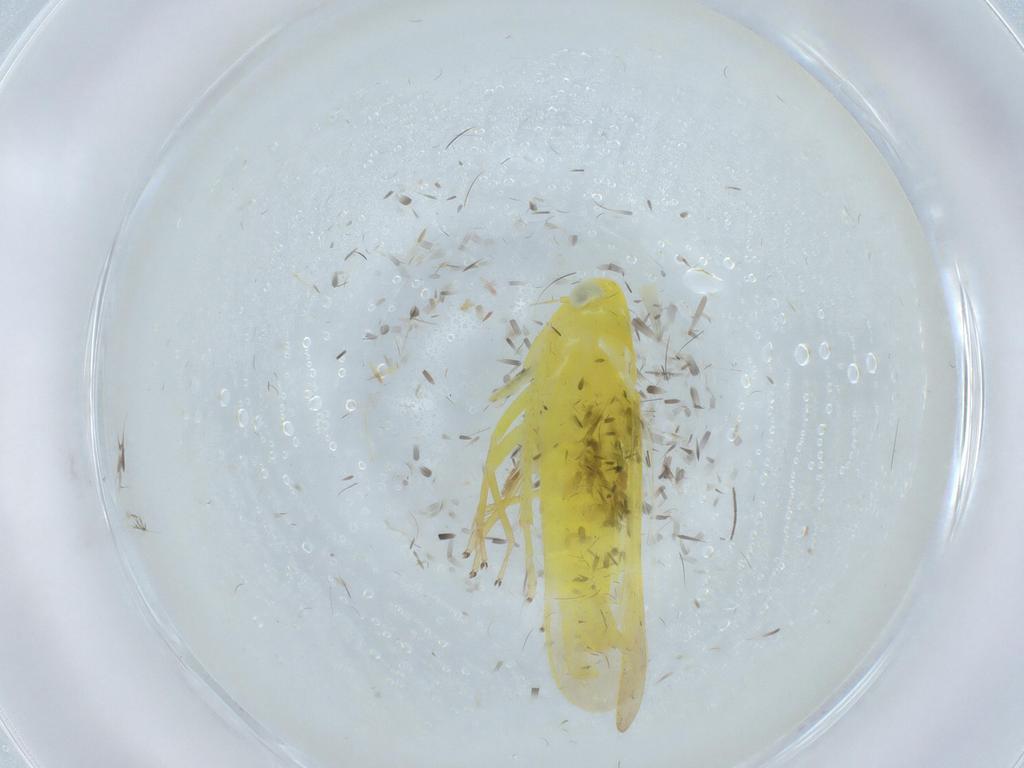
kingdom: Animalia
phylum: Arthropoda
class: Insecta
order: Hemiptera
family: Cicadellidae
